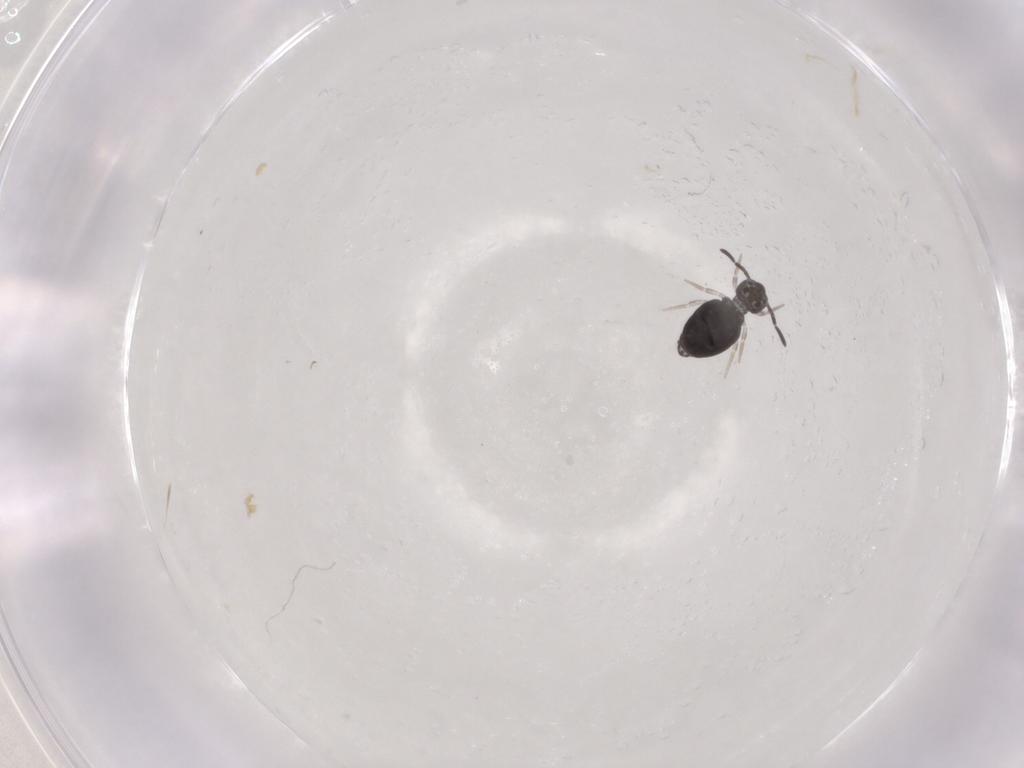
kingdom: Animalia
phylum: Arthropoda
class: Collembola
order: Symphypleona
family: Katiannidae
